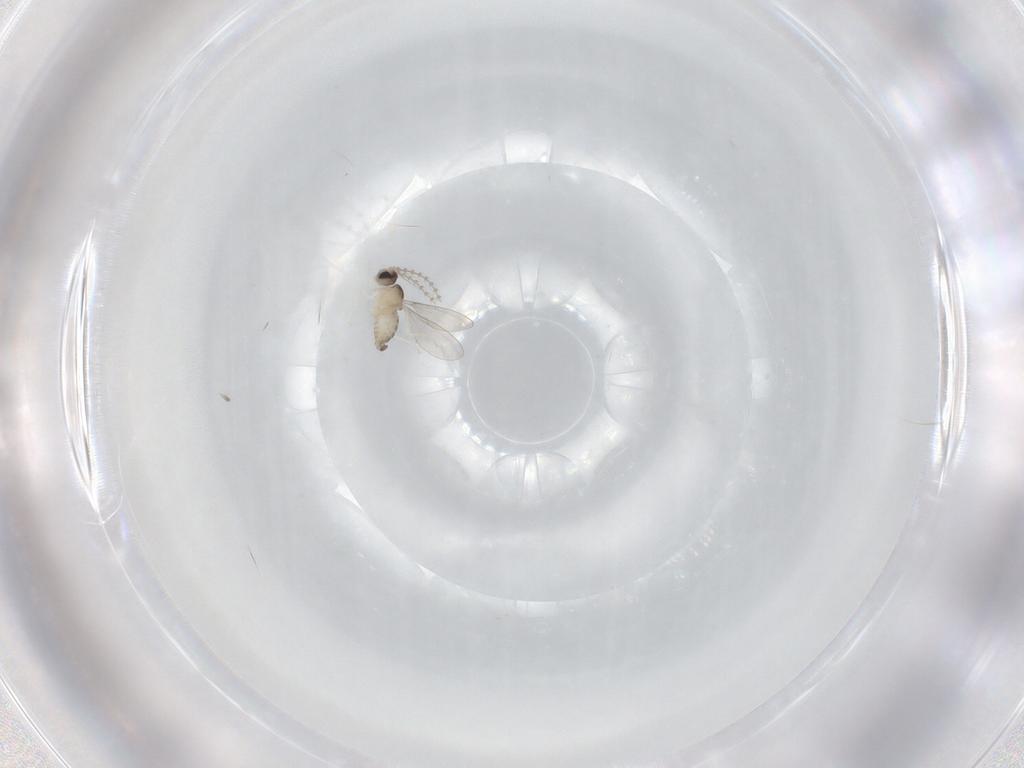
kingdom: Animalia
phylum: Arthropoda
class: Insecta
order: Diptera
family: Cecidomyiidae
